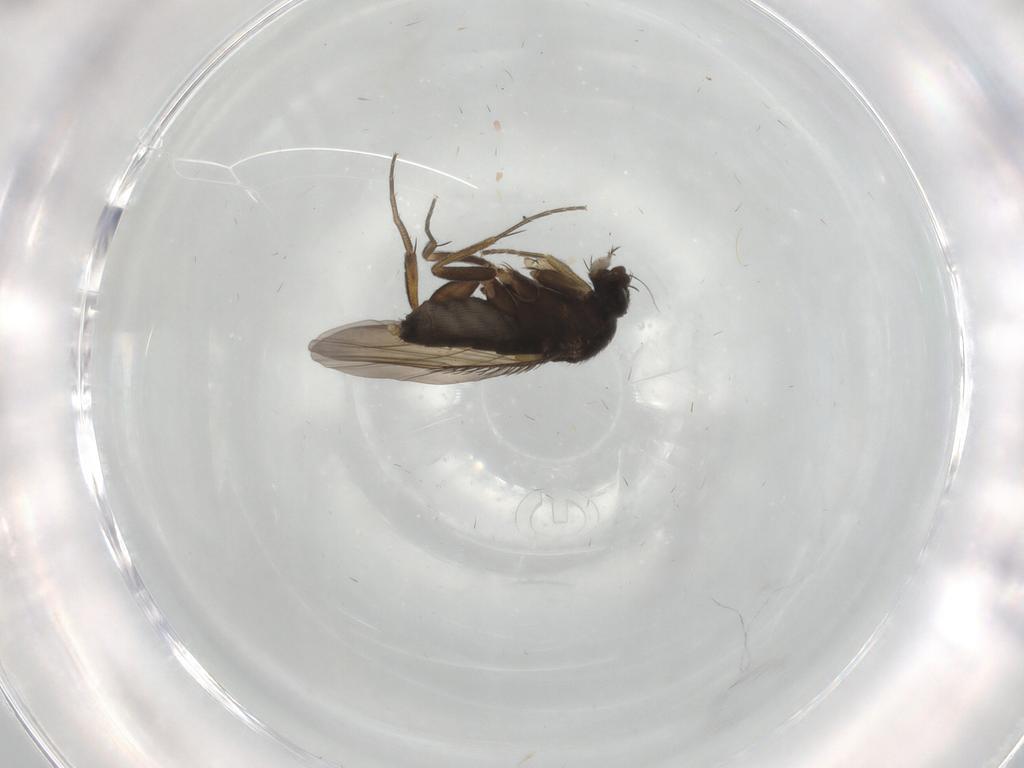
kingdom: Animalia
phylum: Arthropoda
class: Insecta
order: Diptera
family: Phoridae
